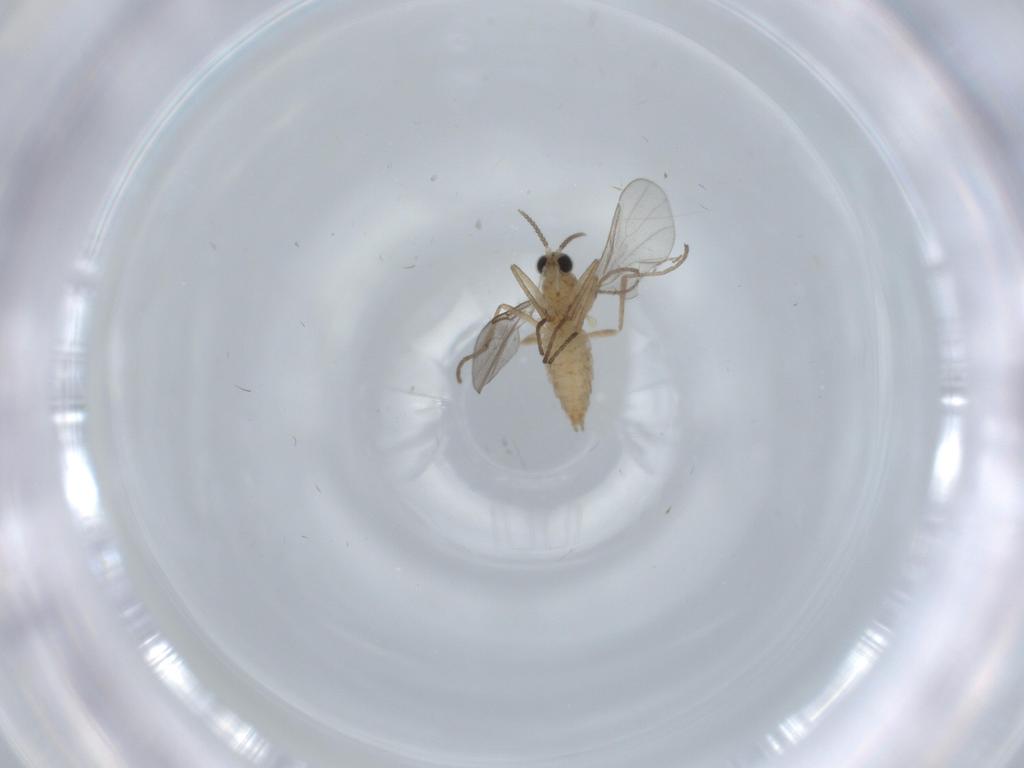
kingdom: Animalia
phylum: Arthropoda
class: Insecta
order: Diptera
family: Cecidomyiidae
